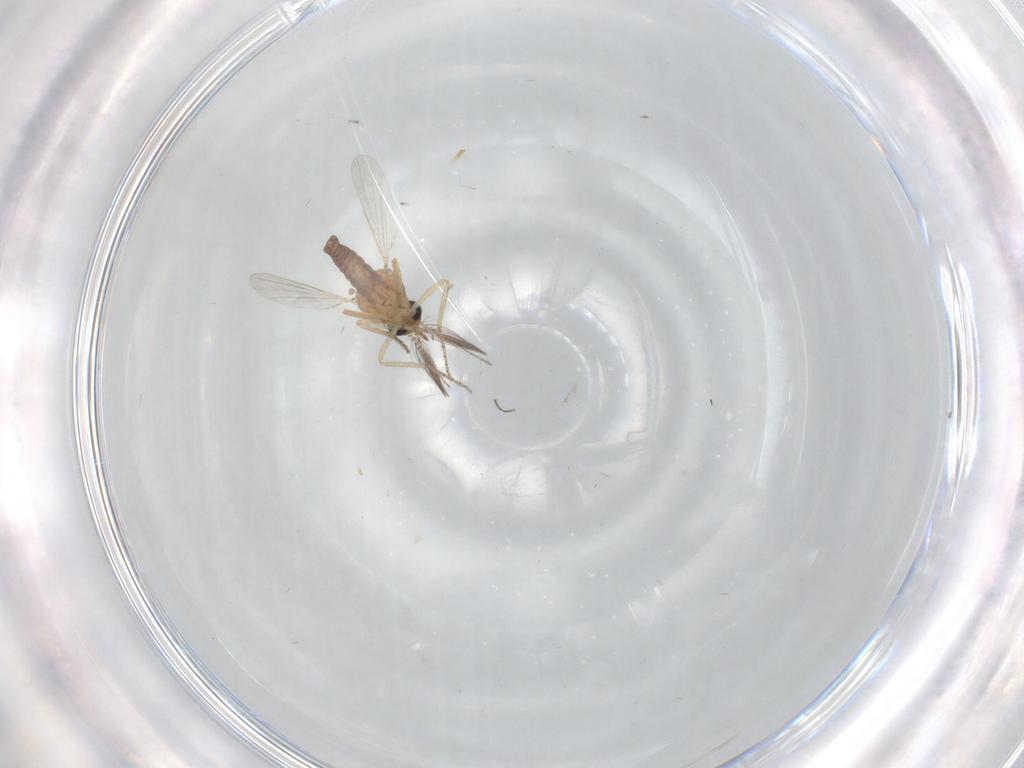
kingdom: Animalia
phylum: Arthropoda
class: Insecta
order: Diptera
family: Ceratopogonidae
